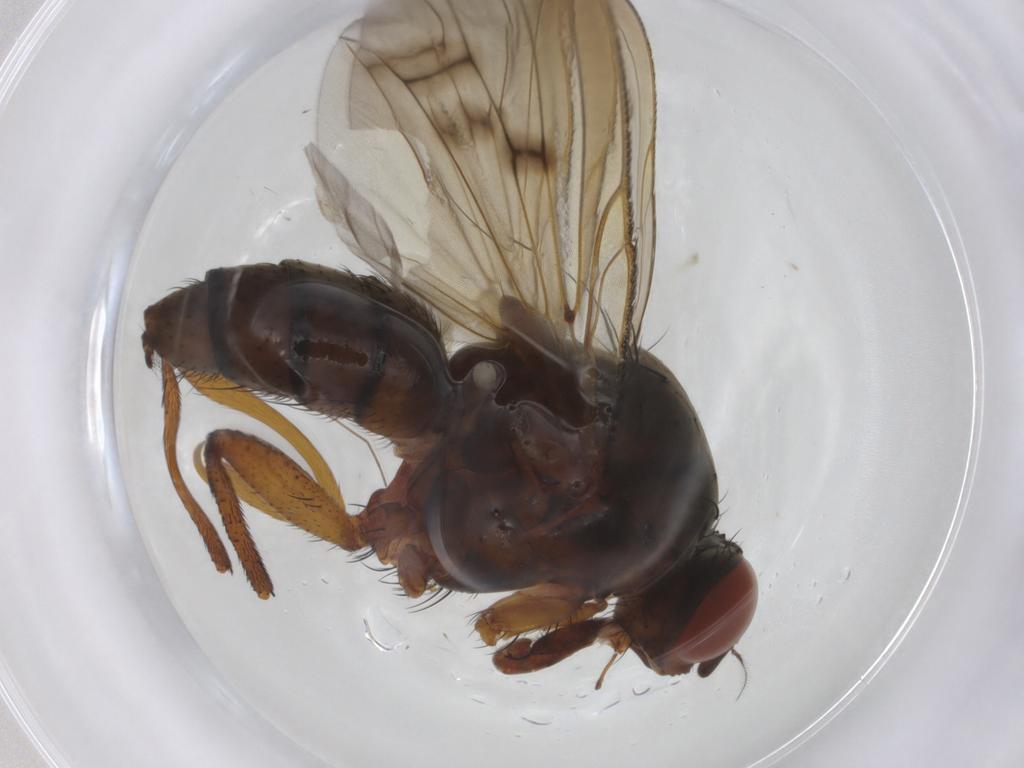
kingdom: Animalia
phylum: Arthropoda
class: Insecta
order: Diptera
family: Anthomyiidae
